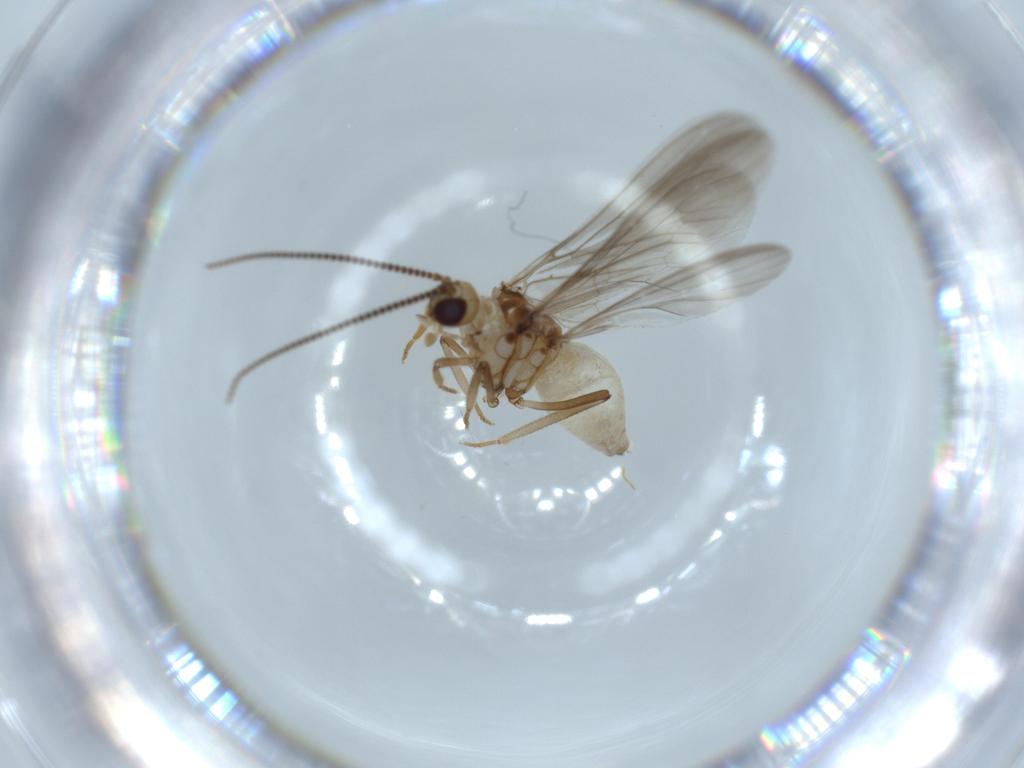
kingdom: Animalia
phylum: Arthropoda
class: Insecta
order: Neuroptera
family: Coniopterygidae
